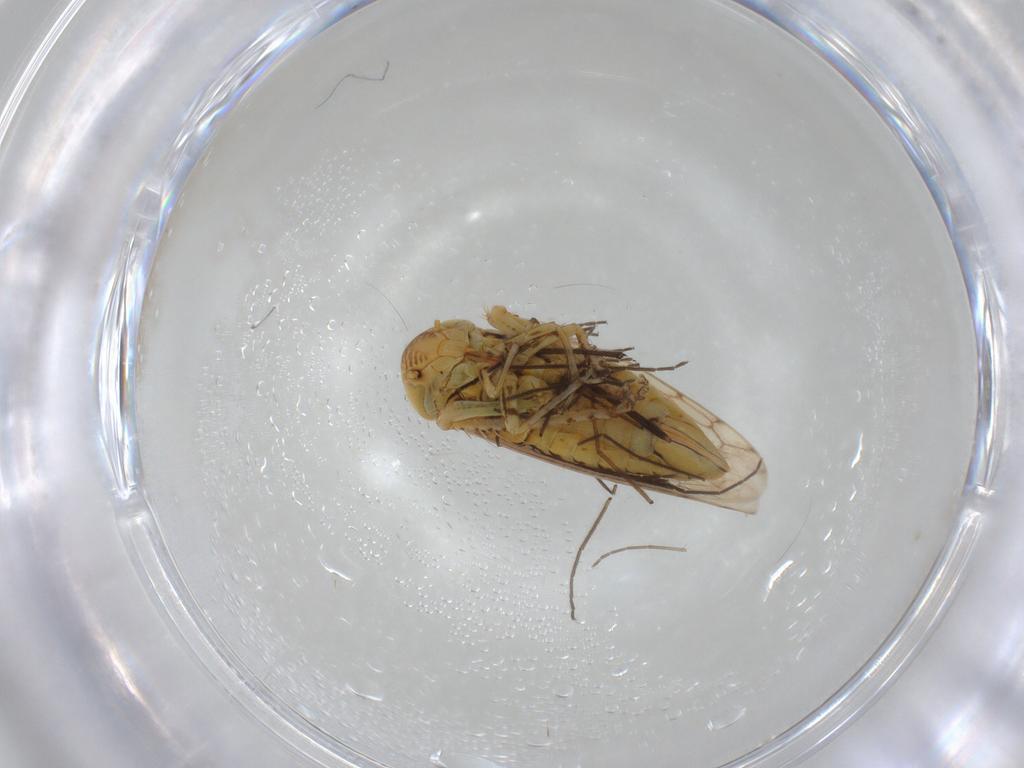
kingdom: Animalia
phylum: Arthropoda
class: Insecta
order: Hemiptera
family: Cicadellidae
